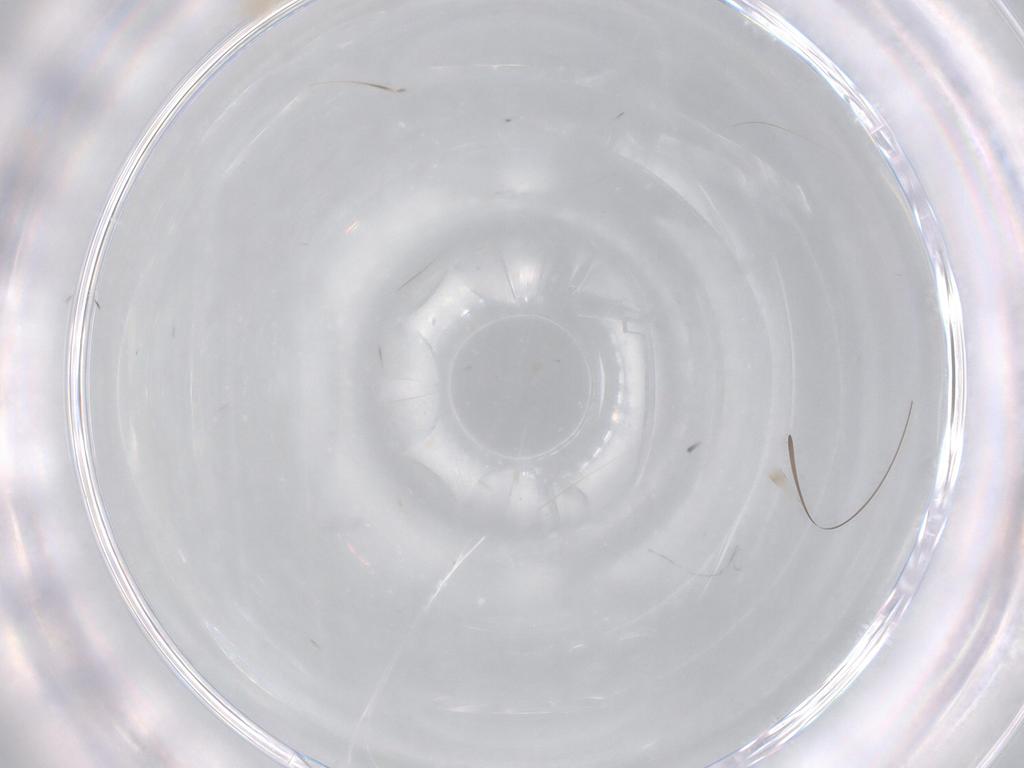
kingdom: Animalia
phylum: Arthropoda
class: Insecta
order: Diptera
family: Cecidomyiidae
